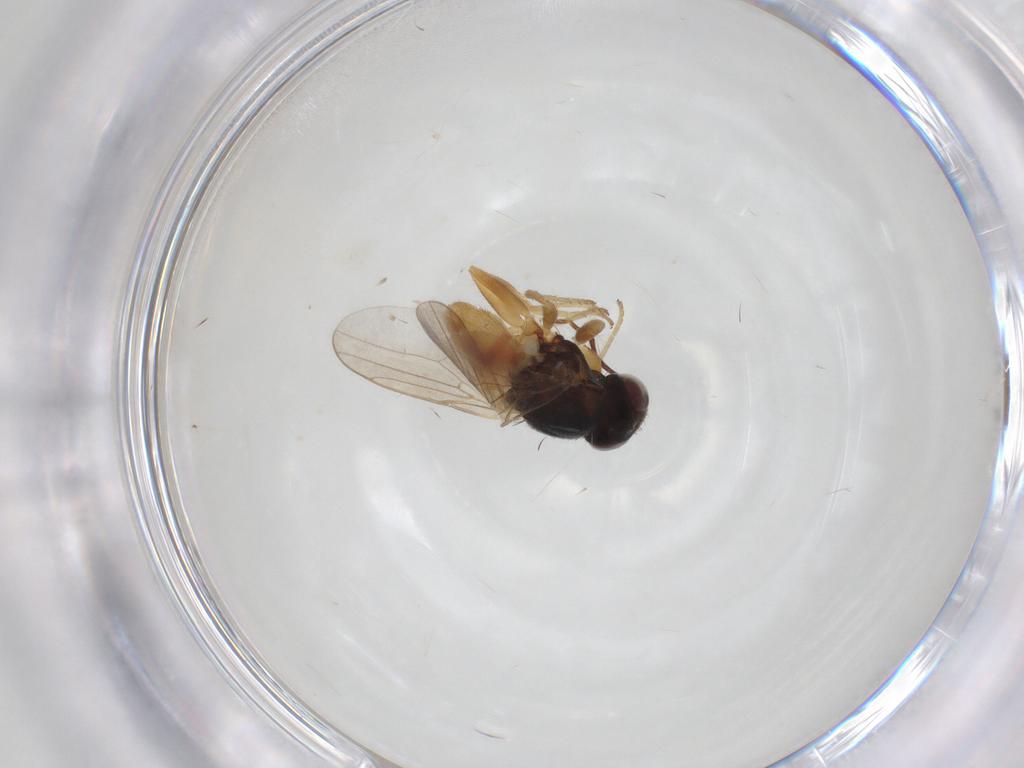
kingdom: Animalia
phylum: Arthropoda
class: Insecta
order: Diptera
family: Chloropidae
